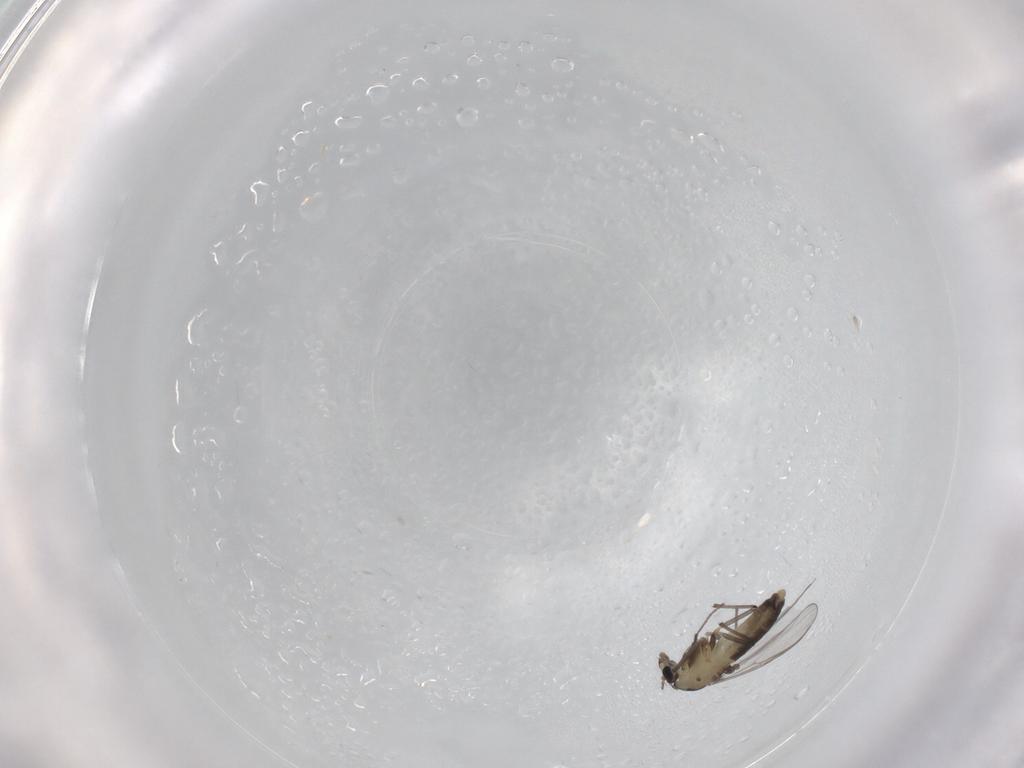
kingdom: Animalia
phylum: Arthropoda
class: Insecta
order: Diptera
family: Chironomidae
